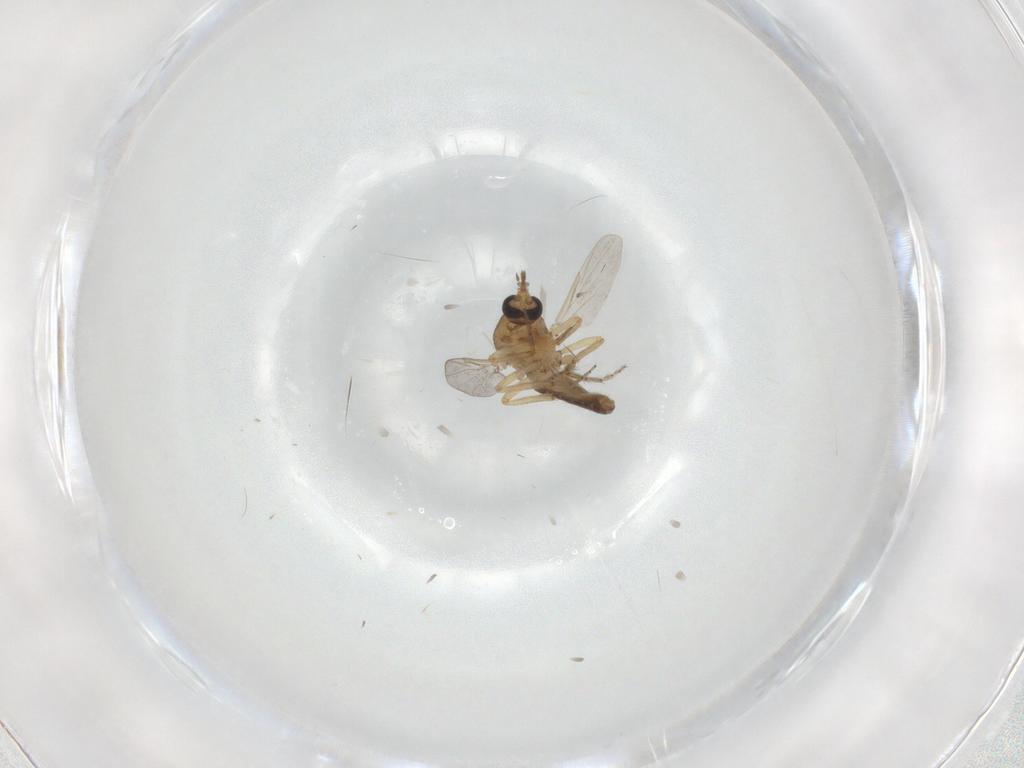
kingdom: Animalia
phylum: Arthropoda
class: Insecta
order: Diptera
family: Ceratopogonidae
